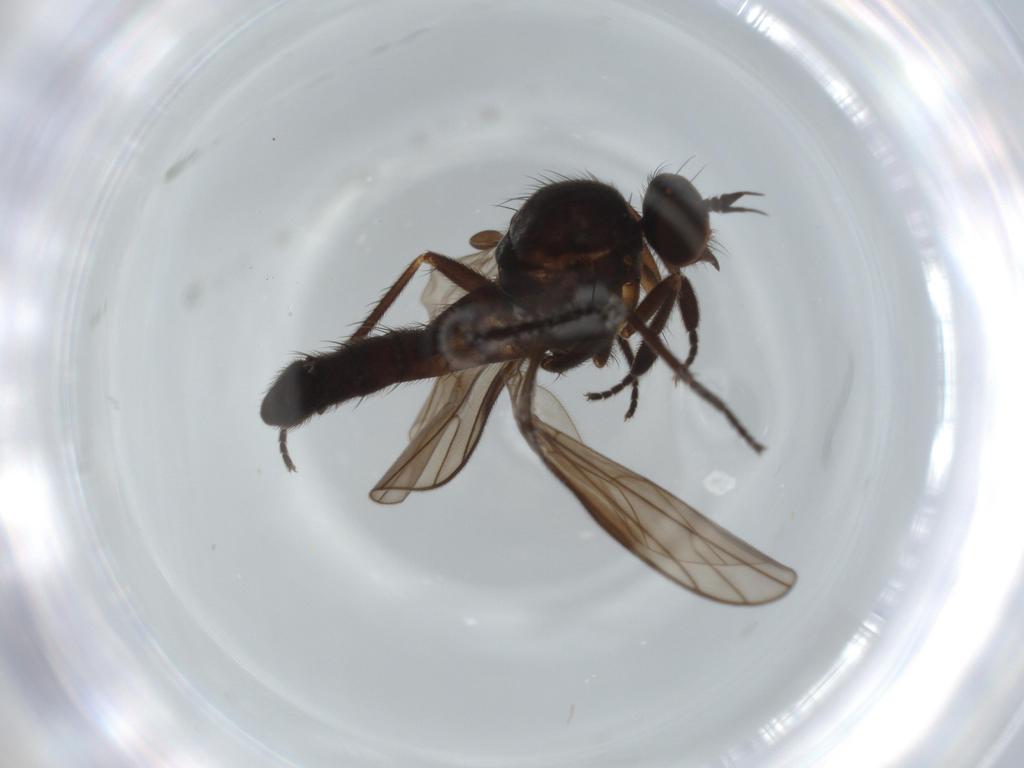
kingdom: Animalia
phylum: Arthropoda
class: Insecta
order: Diptera
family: Empididae
